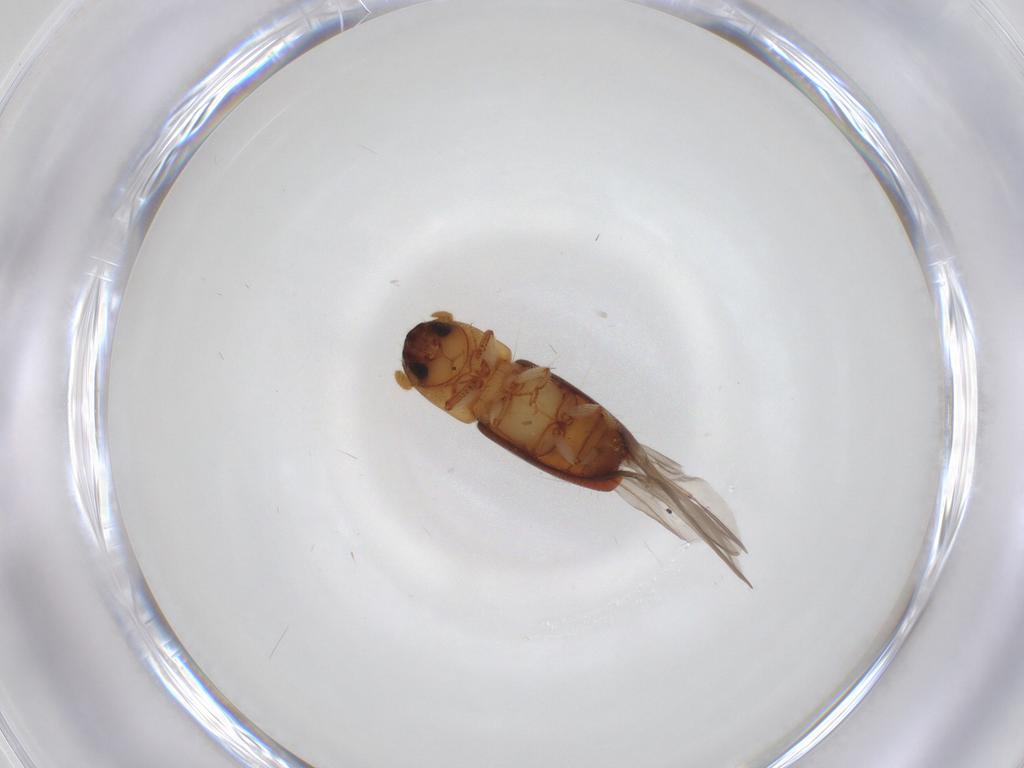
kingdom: Animalia
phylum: Arthropoda
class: Insecta
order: Coleoptera
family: Curculionidae
